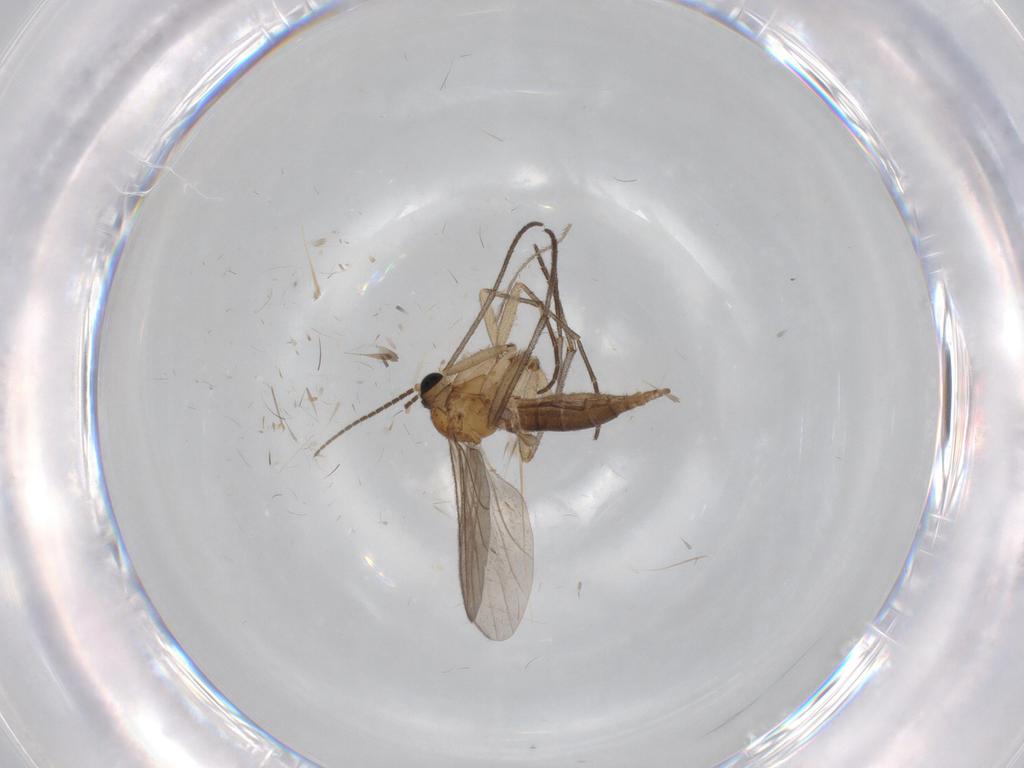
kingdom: Animalia
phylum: Arthropoda
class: Insecta
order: Diptera
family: Sciaridae
